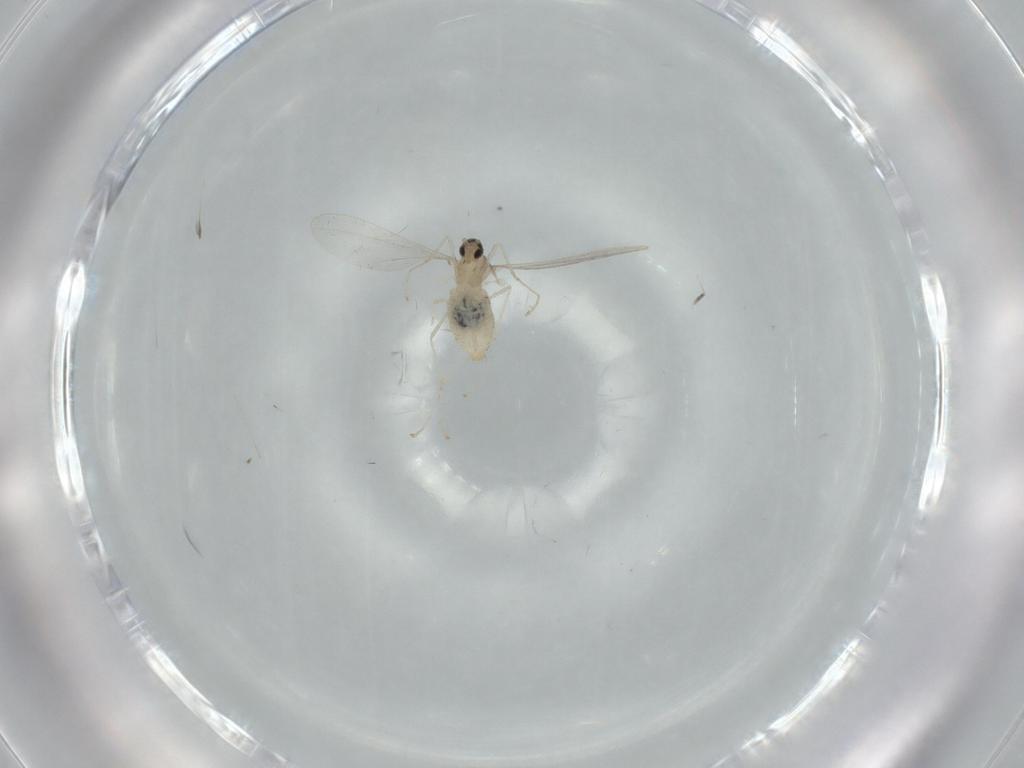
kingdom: Animalia
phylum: Arthropoda
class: Insecta
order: Diptera
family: Cecidomyiidae
